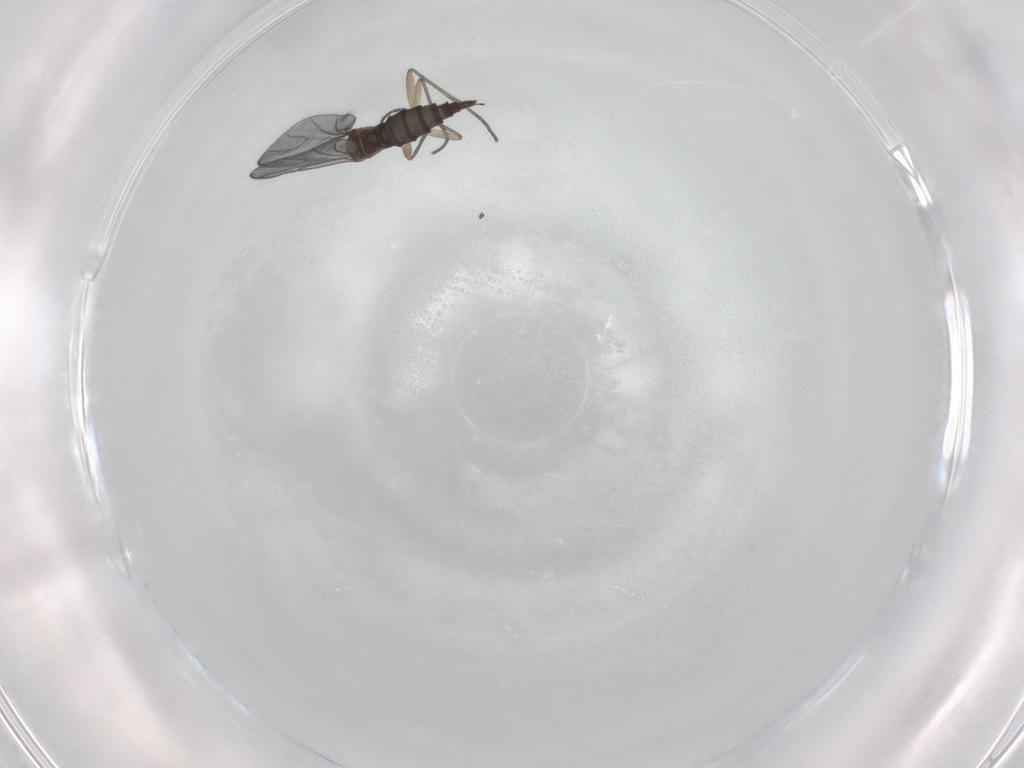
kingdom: Animalia
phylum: Arthropoda
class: Insecta
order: Diptera
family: Sciaridae
